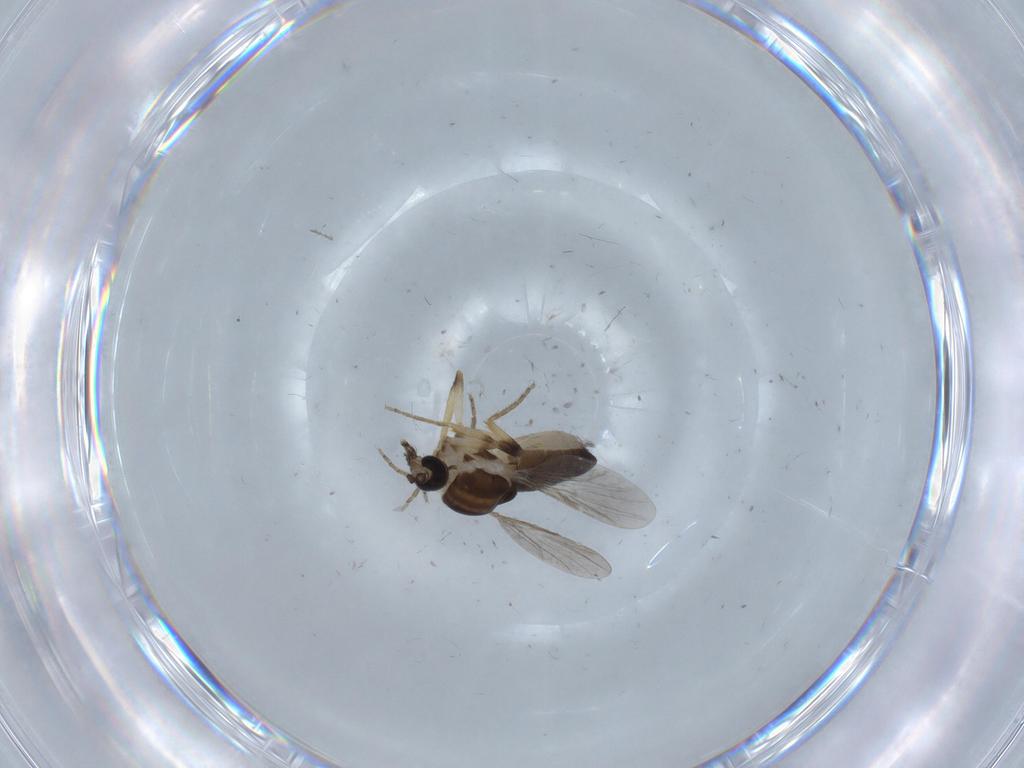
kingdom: Animalia
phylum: Arthropoda
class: Insecta
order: Diptera
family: Ceratopogonidae
